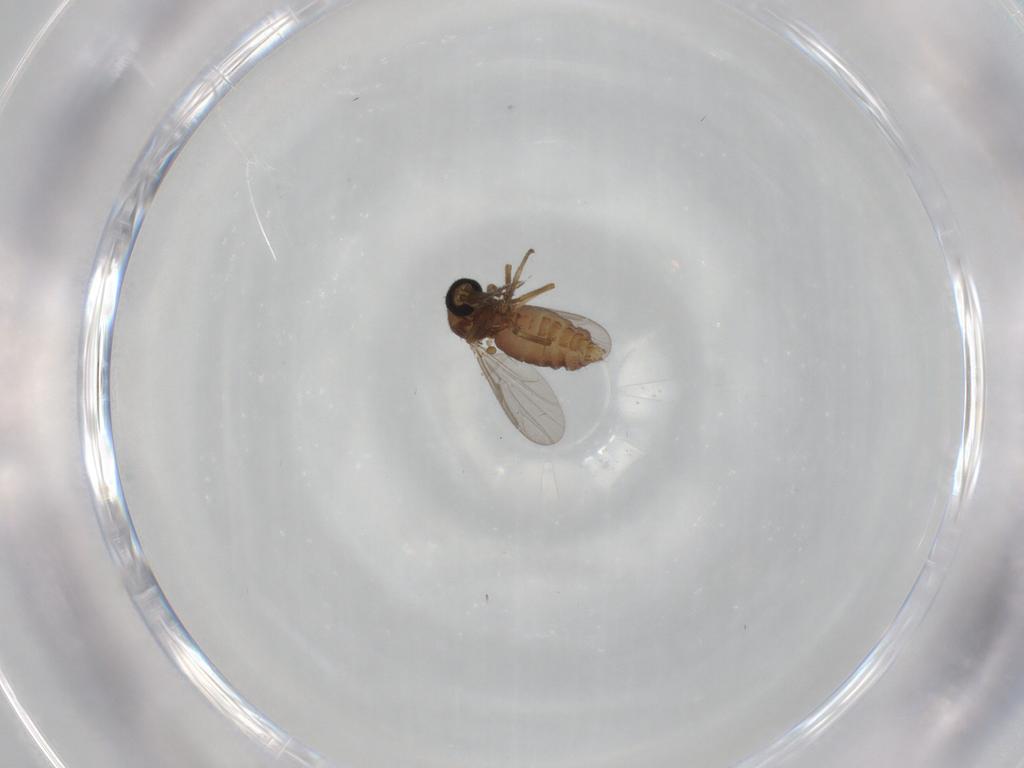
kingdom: Animalia
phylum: Arthropoda
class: Insecta
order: Diptera
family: Ceratopogonidae
